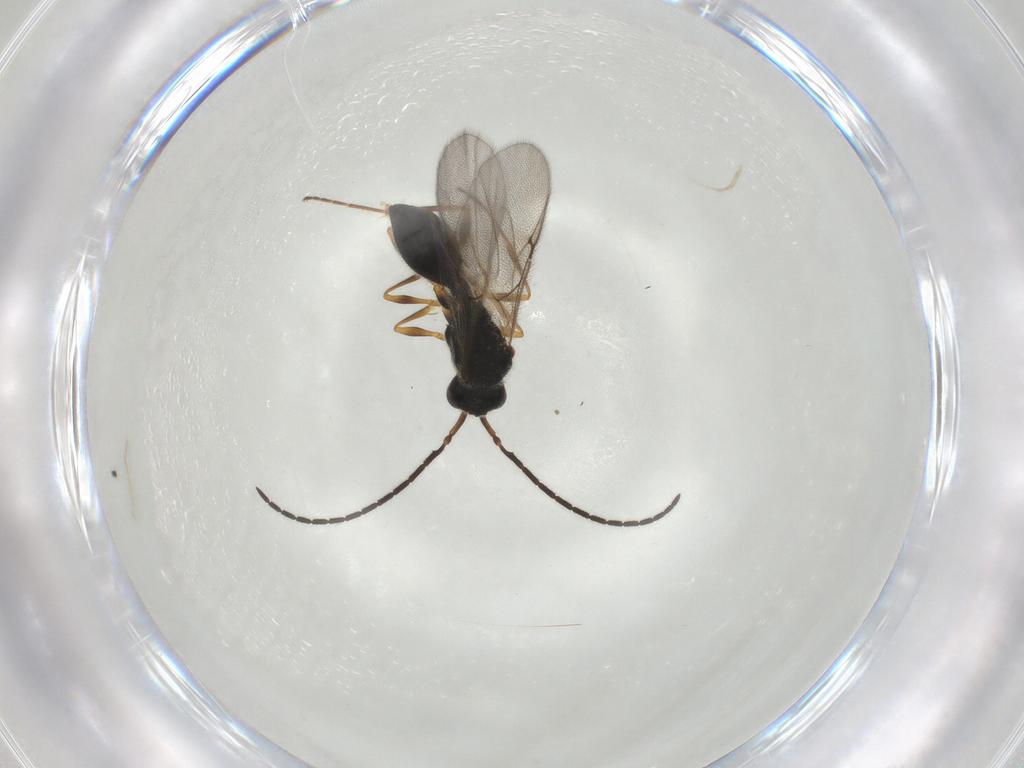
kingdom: Animalia
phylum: Arthropoda
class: Insecta
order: Hymenoptera
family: Diapriidae
